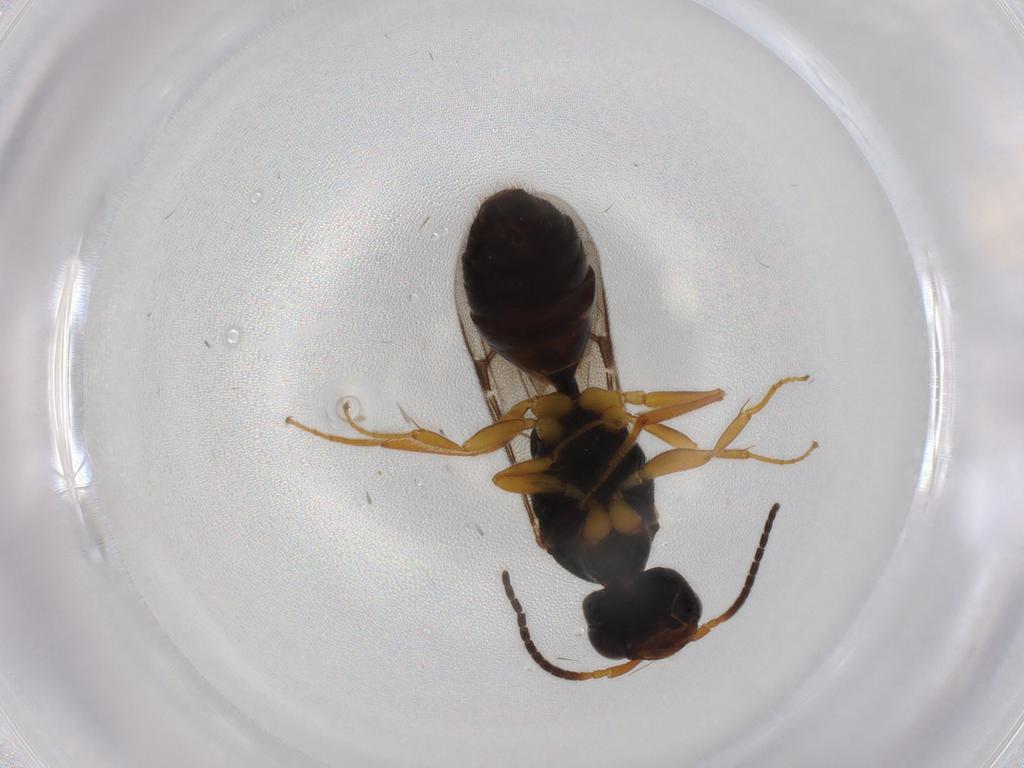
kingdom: Animalia
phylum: Arthropoda
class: Insecta
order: Hymenoptera
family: Bethylidae
